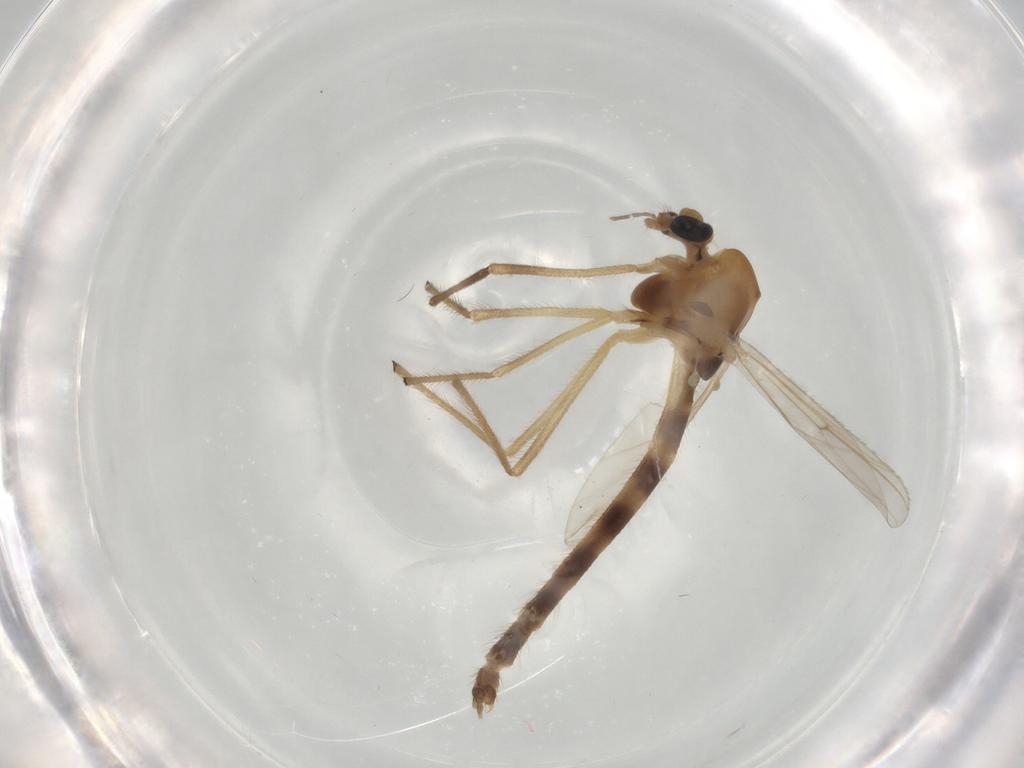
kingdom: Animalia
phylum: Arthropoda
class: Insecta
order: Diptera
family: Chironomidae
